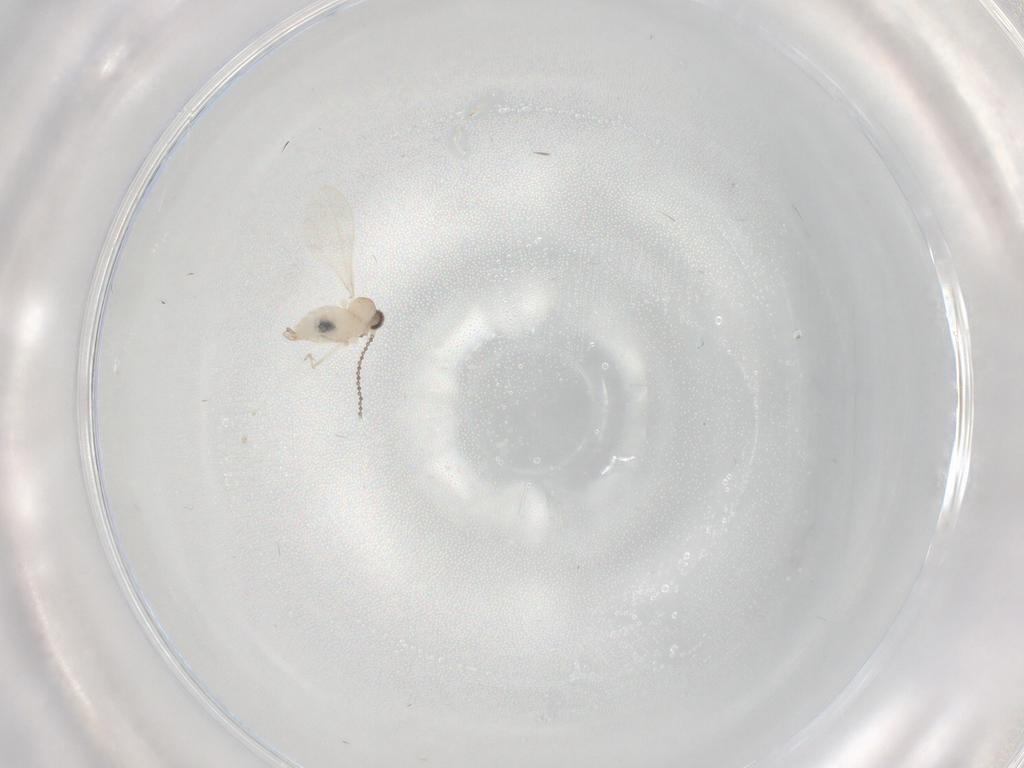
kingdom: Animalia
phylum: Arthropoda
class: Insecta
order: Diptera
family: Cecidomyiidae
